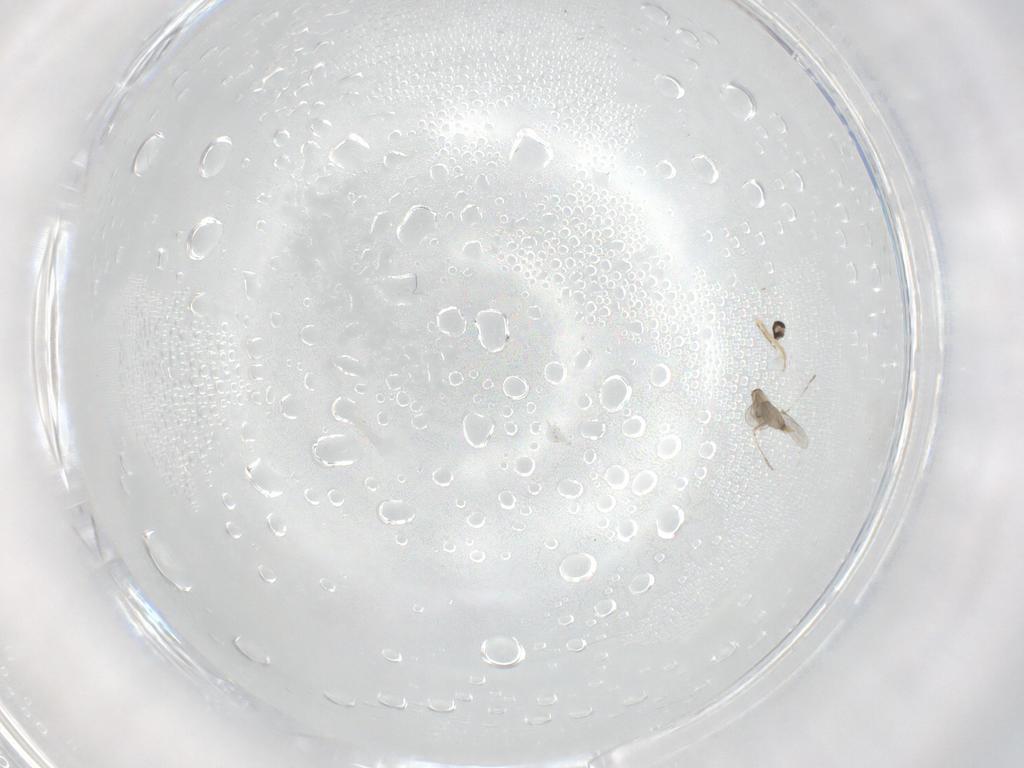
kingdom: Animalia
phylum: Arthropoda
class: Insecta
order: Diptera
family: Cecidomyiidae
